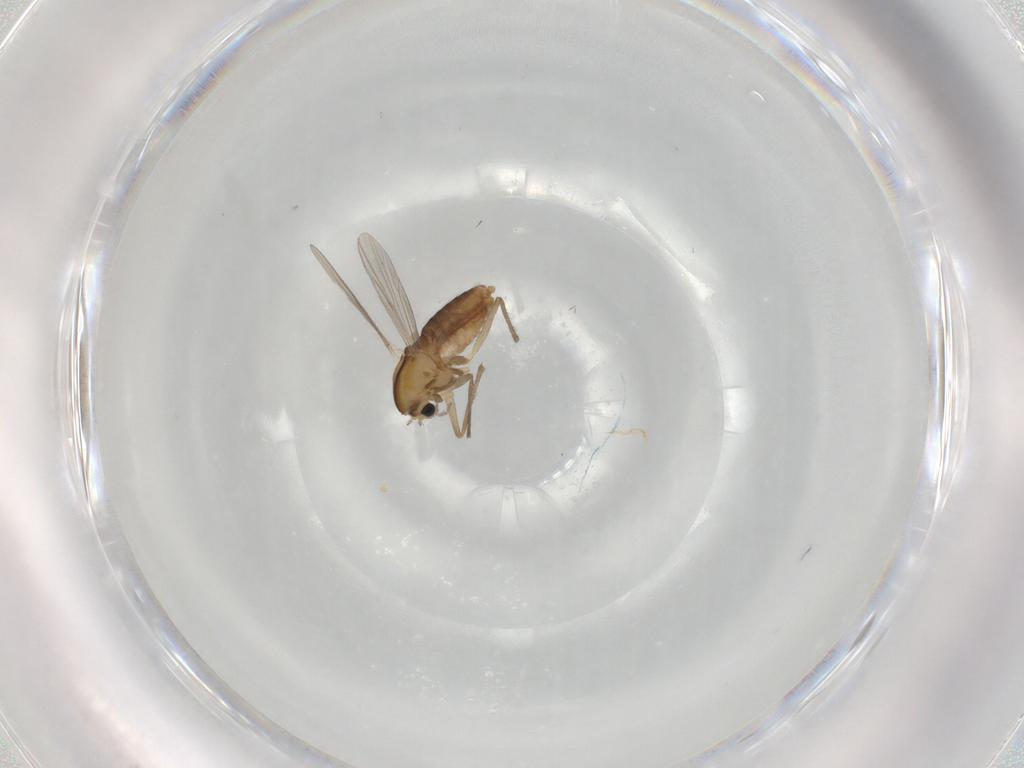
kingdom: Animalia
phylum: Arthropoda
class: Insecta
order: Diptera
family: Chironomidae
